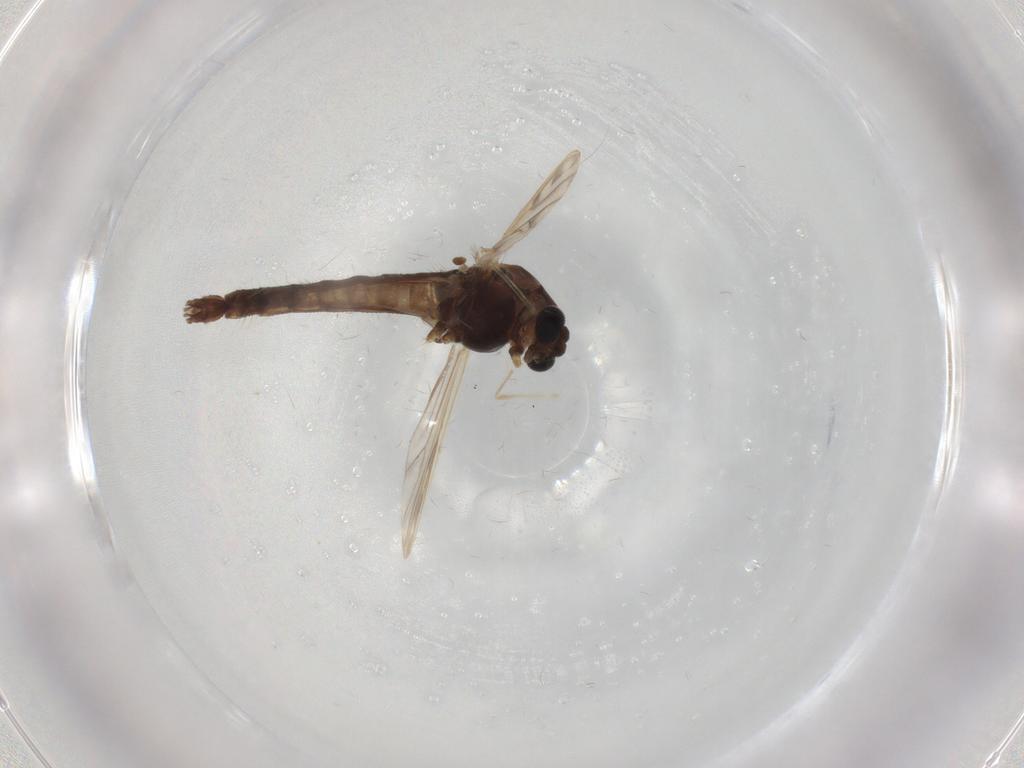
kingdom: Animalia
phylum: Arthropoda
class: Insecta
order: Diptera
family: Chironomidae
